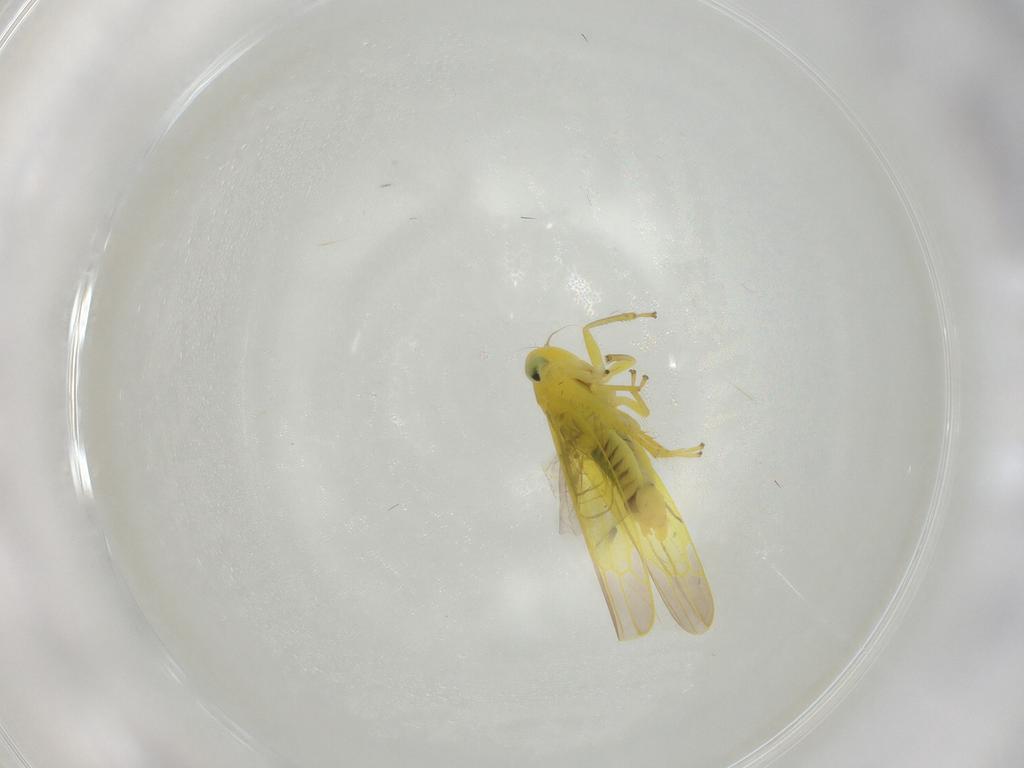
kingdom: Animalia
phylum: Arthropoda
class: Insecta
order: Hemiptera
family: Cicadellidae
